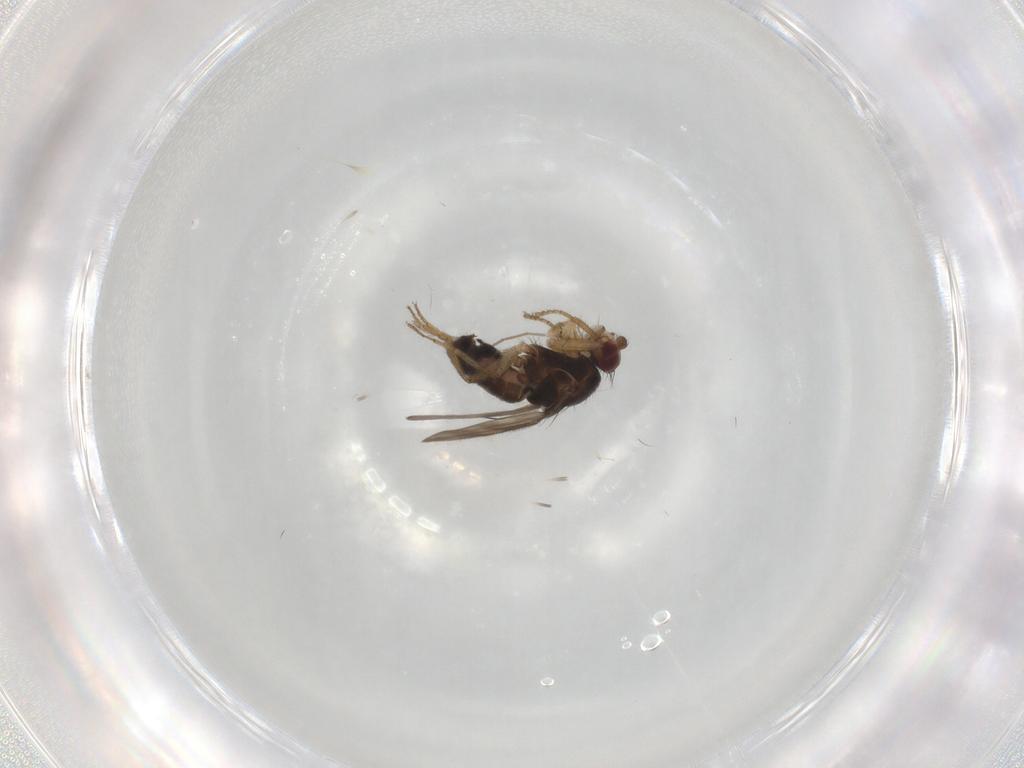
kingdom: Animalia
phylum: Arthropoda
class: Insecta
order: Diptera
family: Sphaeroceridae
